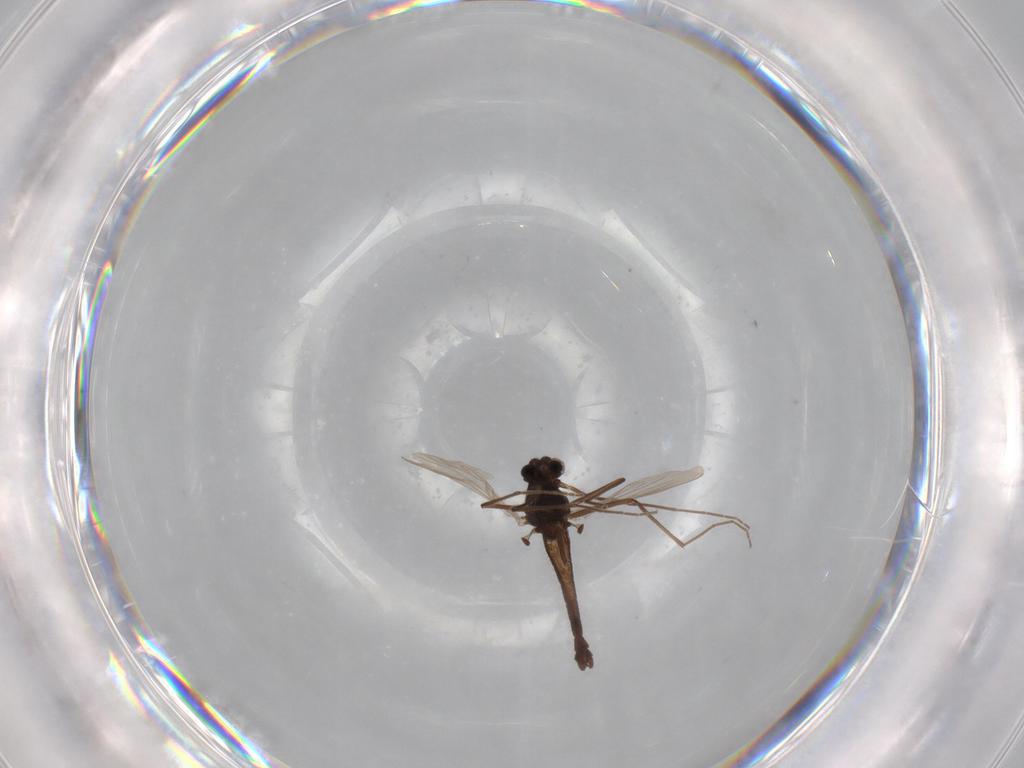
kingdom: Animalia
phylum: Arthropoda
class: Insecta
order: Diptera
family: Chironomidae
